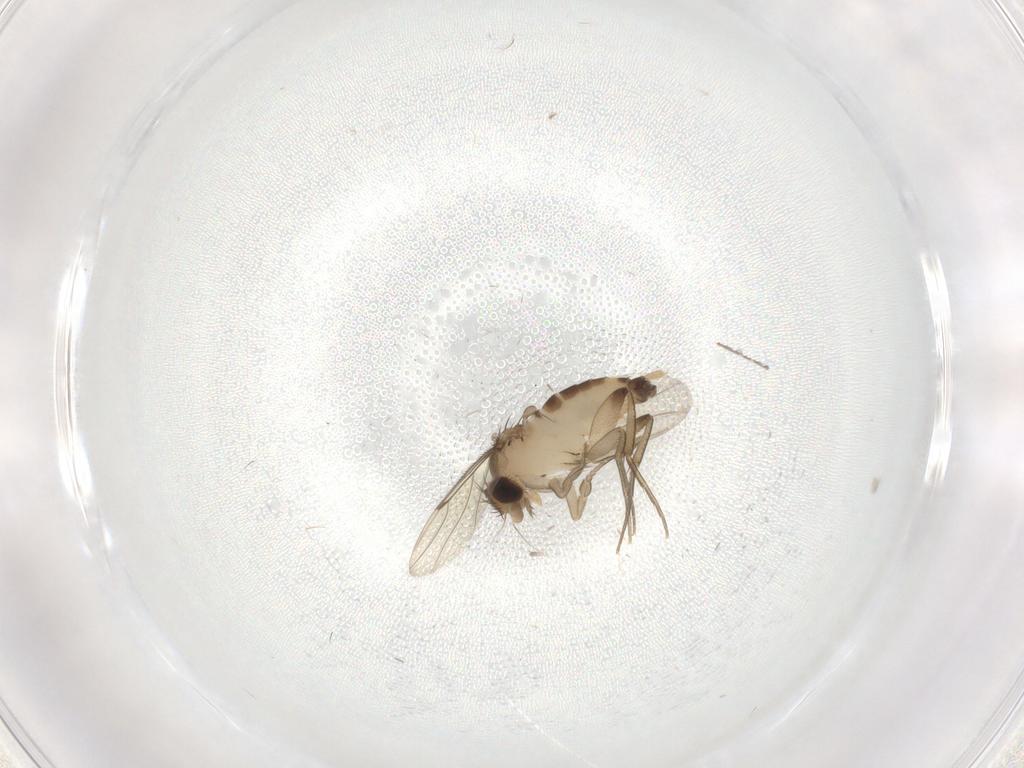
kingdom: Animalia
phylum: Arthropoda
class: Insecta
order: Diptera
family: Phoridae
